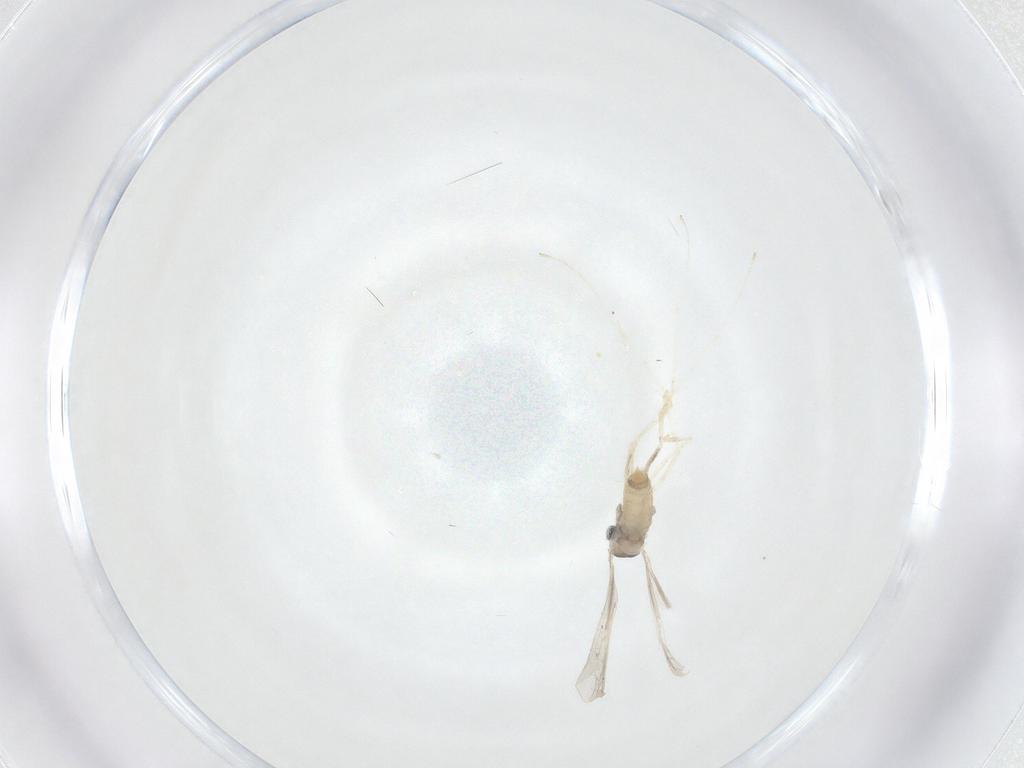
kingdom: Animalia
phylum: Arthropoda
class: Insecta
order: Diptera
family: Cecidomyiidae
